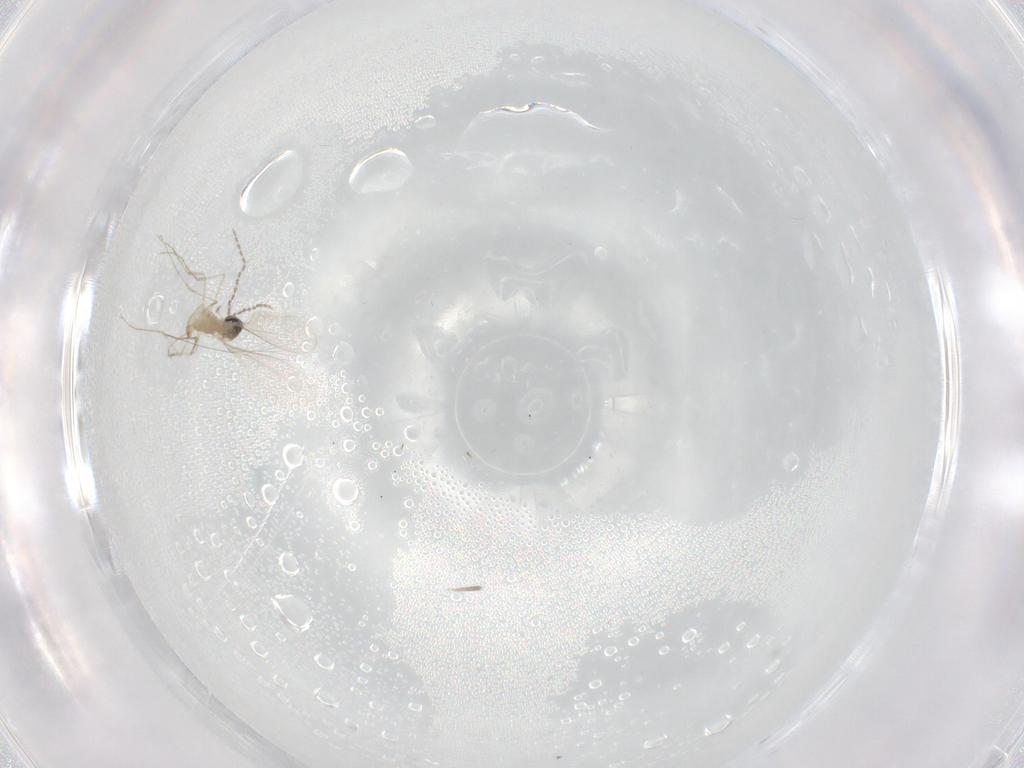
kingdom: Animalia
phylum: Arthropoda
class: Insecta
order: Diptera
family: Cecidomyiidae
